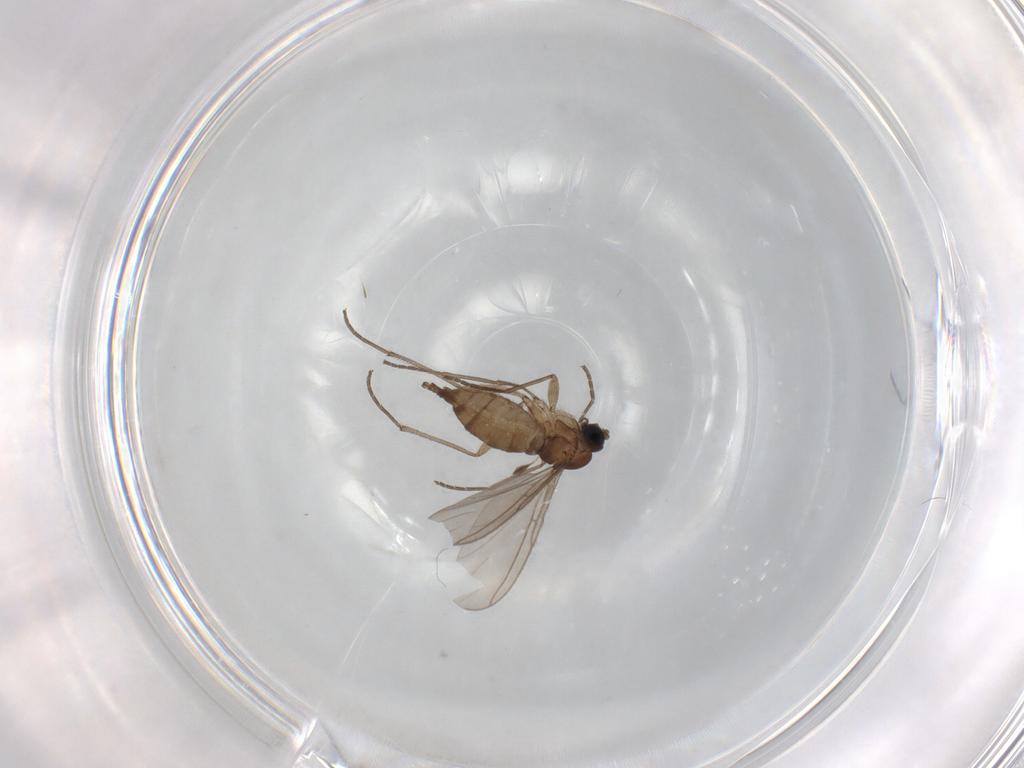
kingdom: Animalia
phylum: Arthropoda
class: Insecta
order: Diptera
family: Sciaridae
